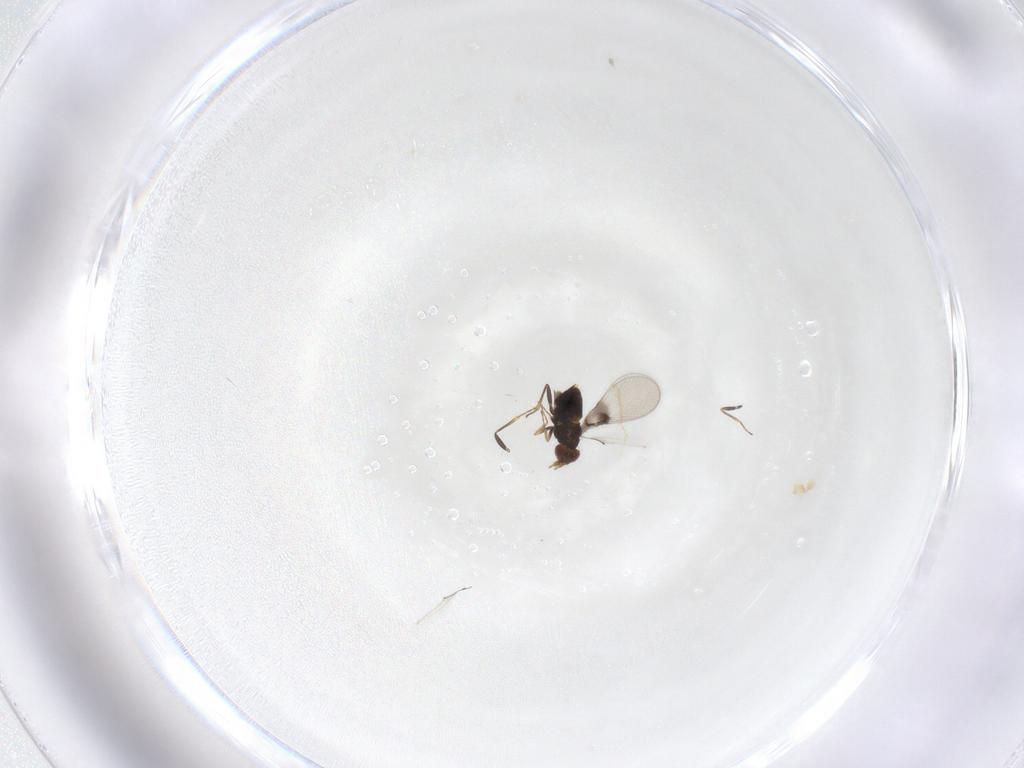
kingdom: Animalia
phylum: Arthropoda
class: Insecta
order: Hymenoptera
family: Trichogrammatidae
